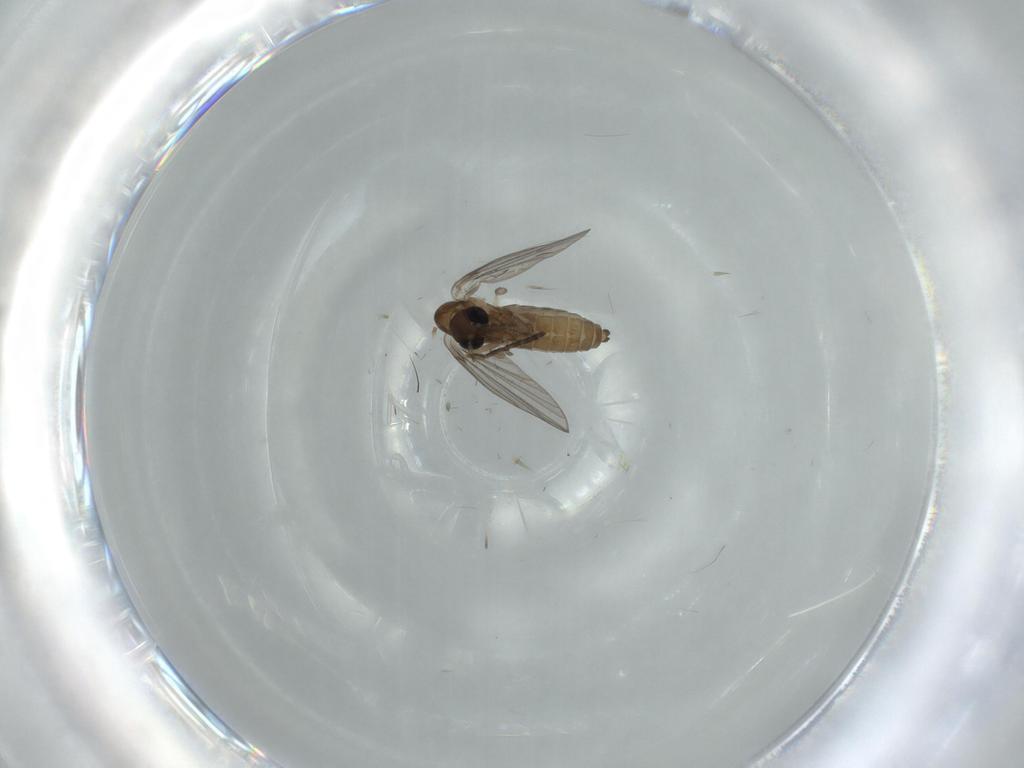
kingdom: Animalia
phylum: Arthropoda
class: Insecta
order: Diptera
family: Psychodidae
